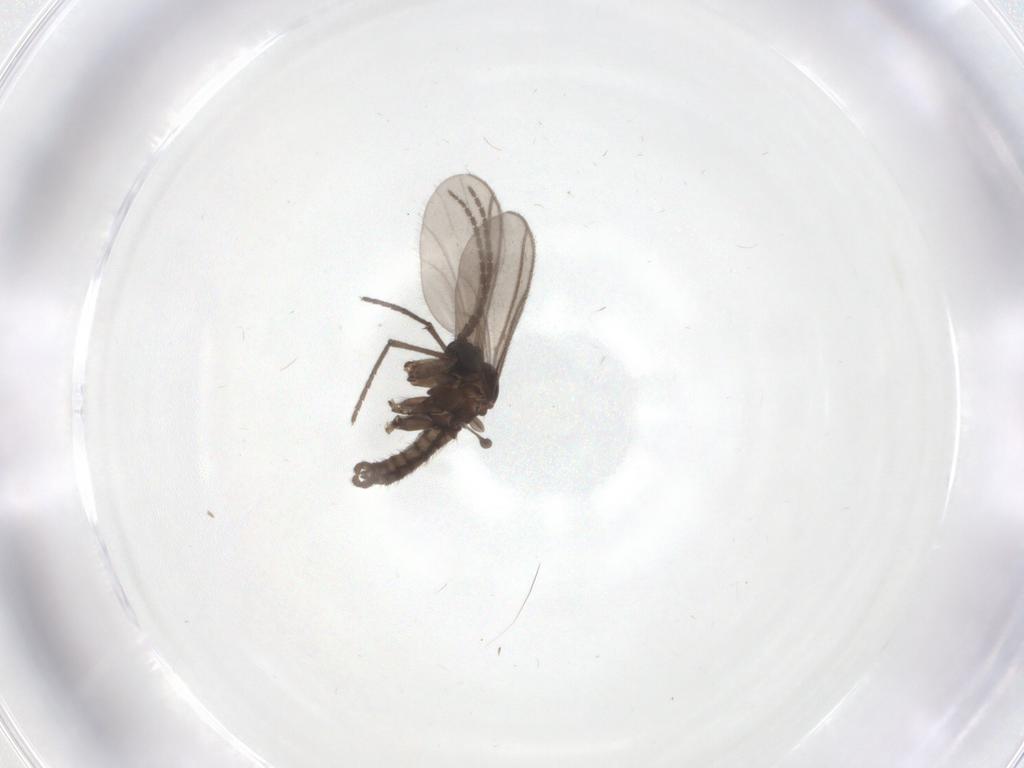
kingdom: Animalia
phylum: Arthropoda
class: Insecta
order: Diptera
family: Sciaridae
